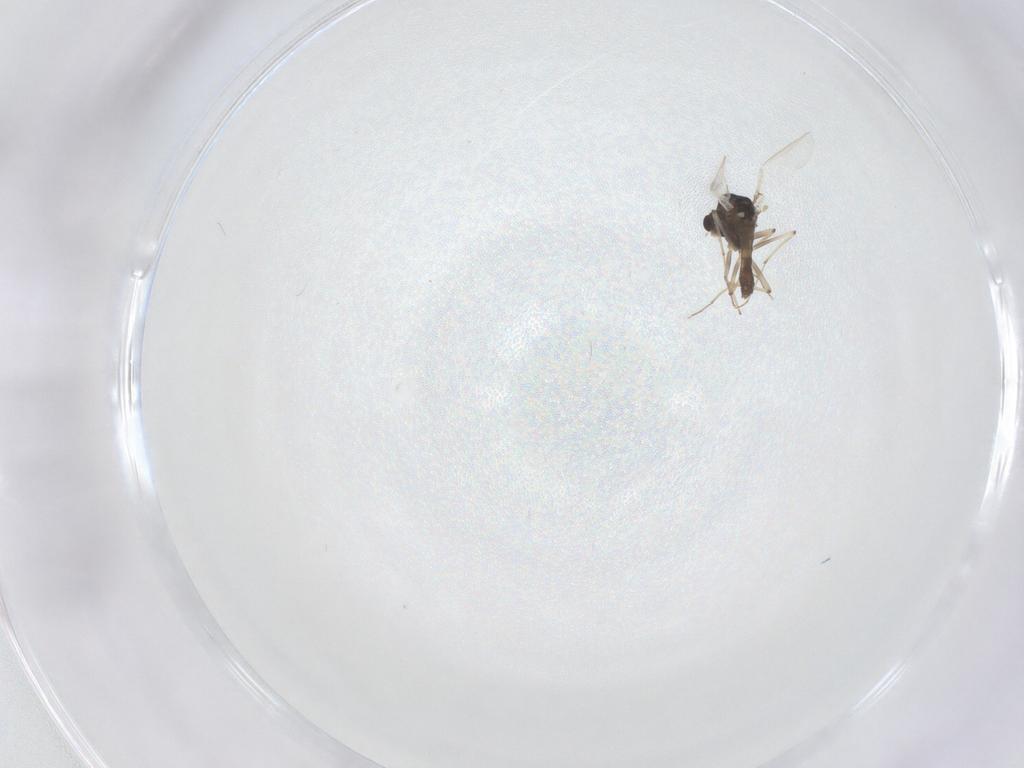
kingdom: Animalia
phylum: Arthropoda
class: Insecta
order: Diptera
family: Chironomidae
